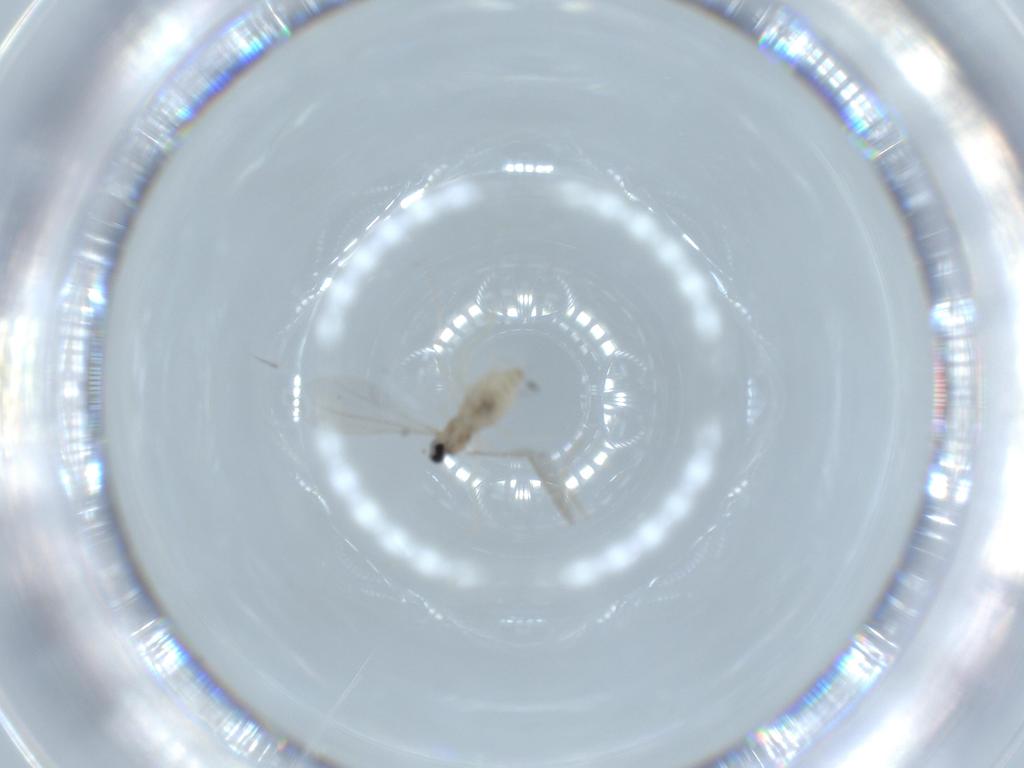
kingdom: Animalia
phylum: Arthropoda
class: Insecta
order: Diptera
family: Cecidomyiidae
